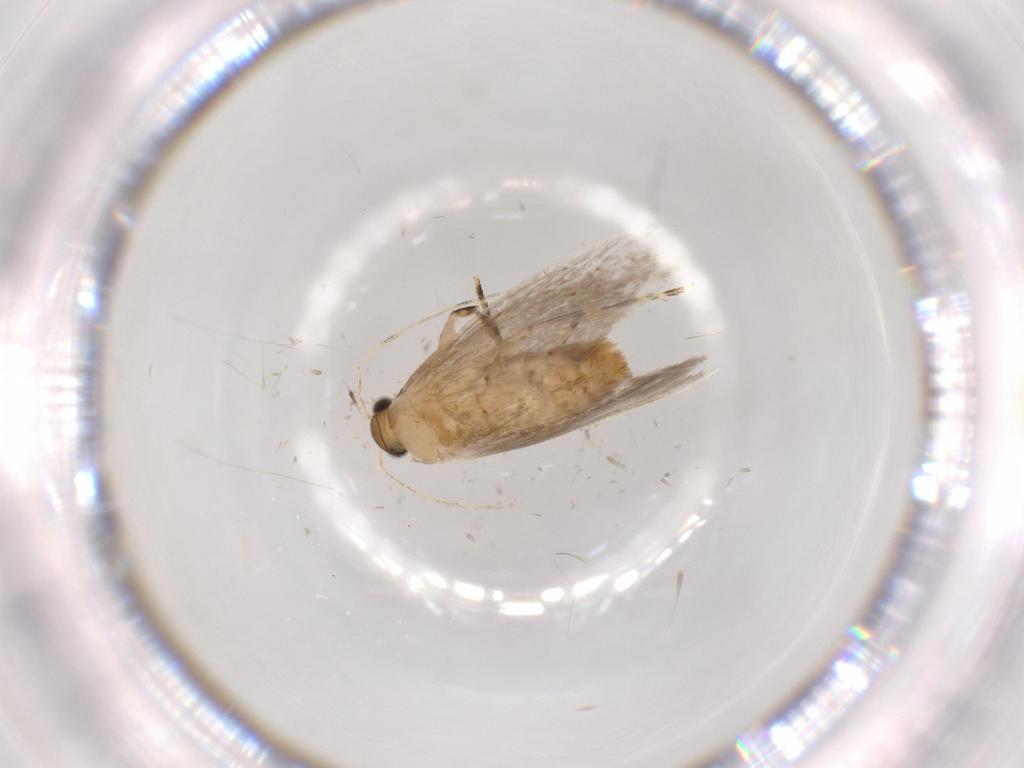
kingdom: Animalia
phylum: Arthropoda
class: Insecta
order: Lepidoptera
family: Tineidae
